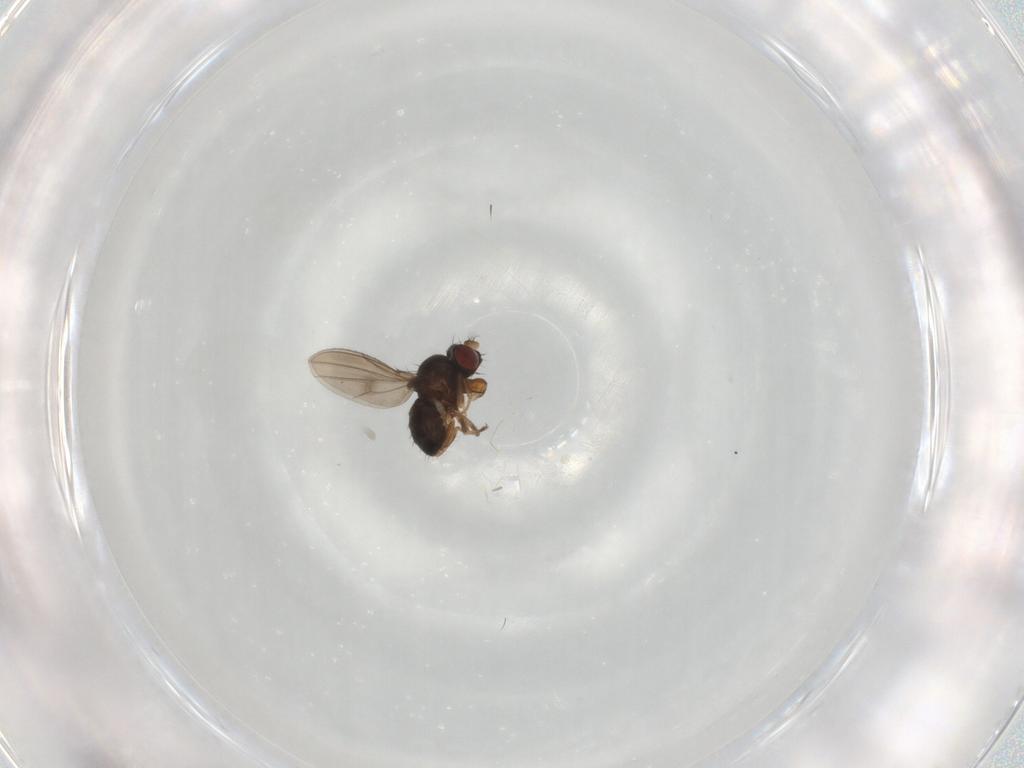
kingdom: Animalia
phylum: Arthropoda
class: Insecta
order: Diptera
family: Ephydridae
